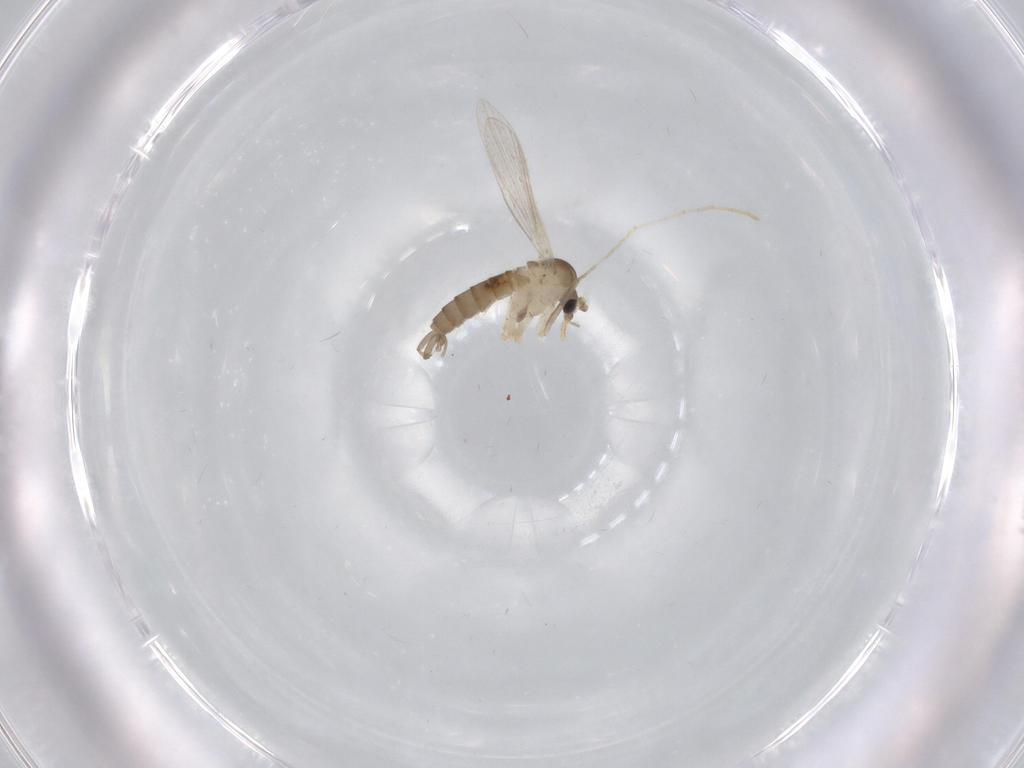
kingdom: Animalia
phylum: Arthropoda
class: Insecta
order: Diptera
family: Psychodidae
